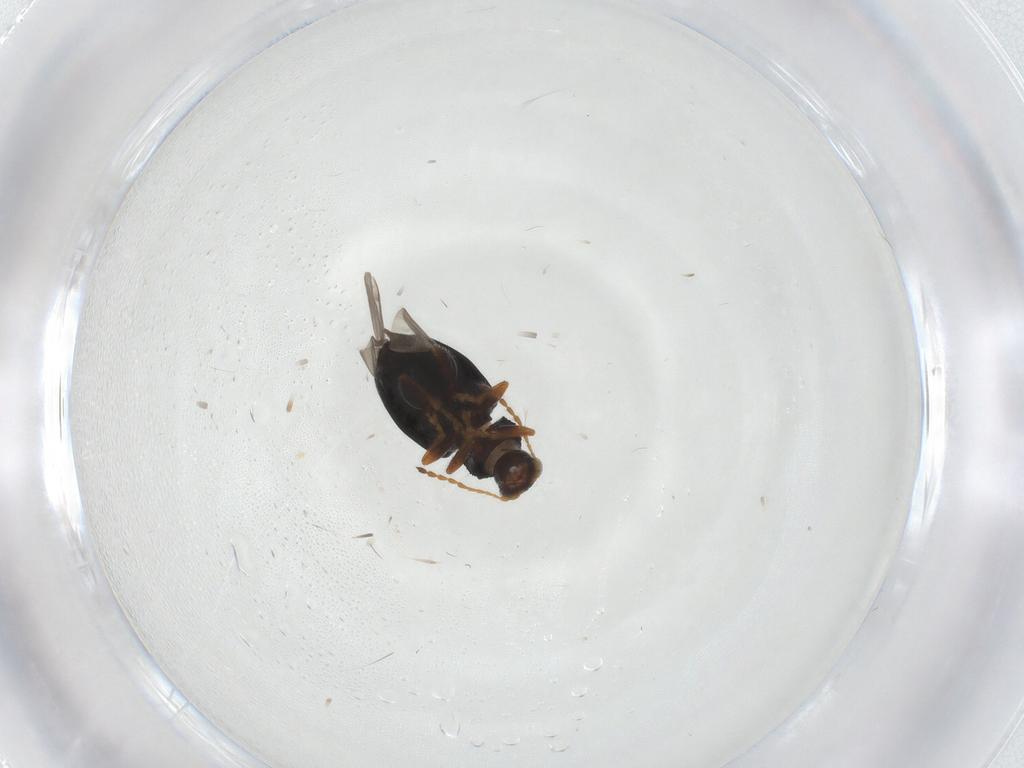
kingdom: Animalia
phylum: Arthropoda
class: Insecta
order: Coleoptera
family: Chrysomelidae
